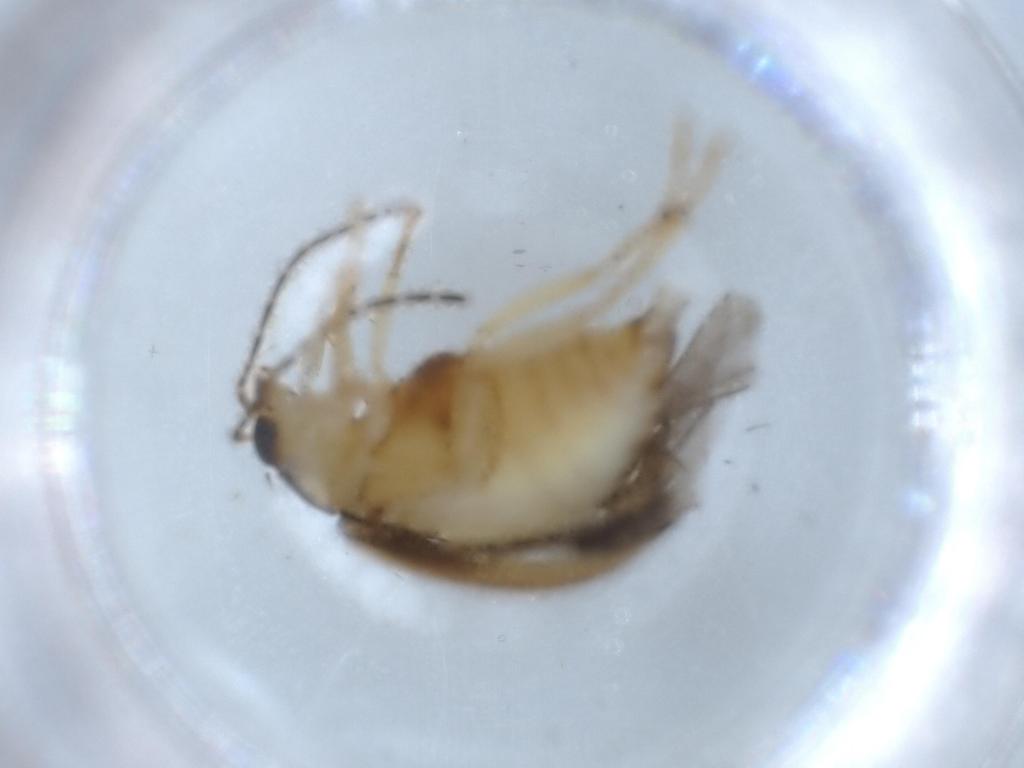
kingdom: Animalia
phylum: Arthropoda
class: Insecta
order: Coleoptera
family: Chrysomelidae
